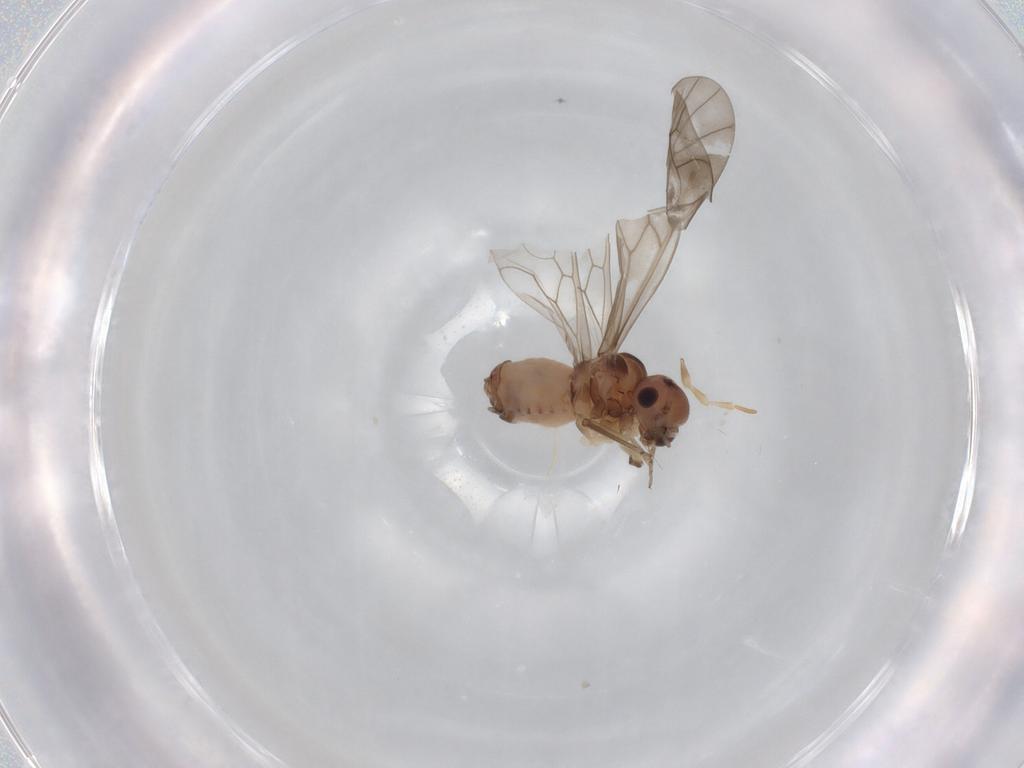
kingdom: Animalia
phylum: Arthropoda
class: Insecta
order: Psocodea
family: Peripsocidae
